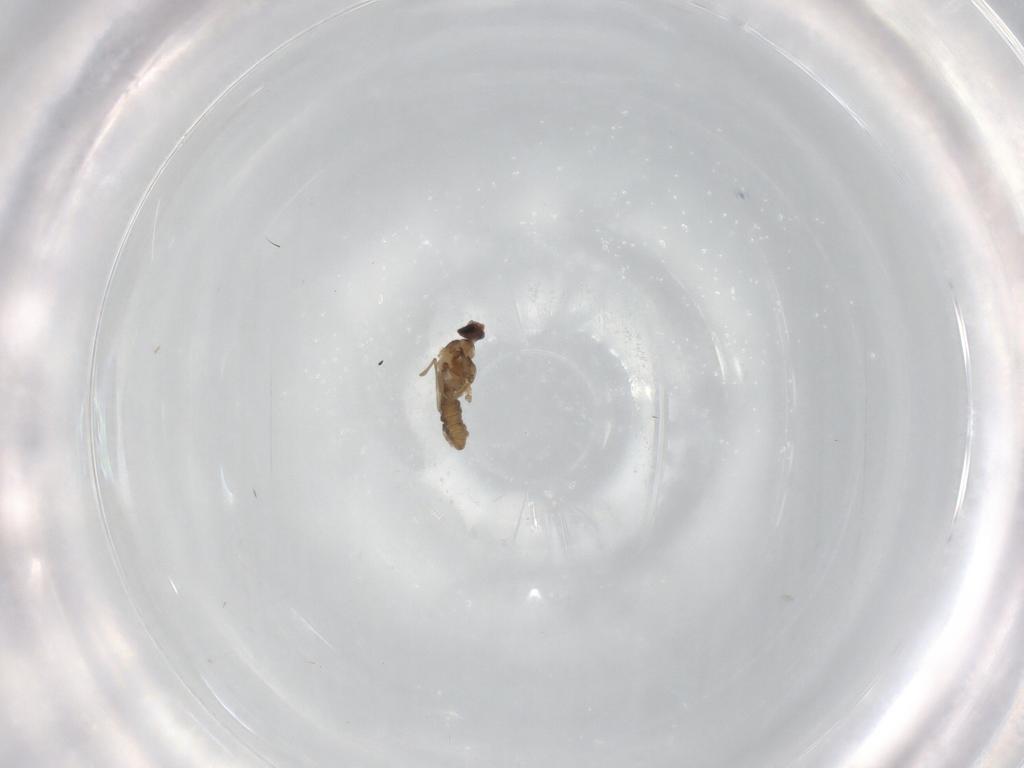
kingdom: Animalia
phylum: Arthropoda
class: Insecta
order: Diptera
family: Cecidomyiidae
